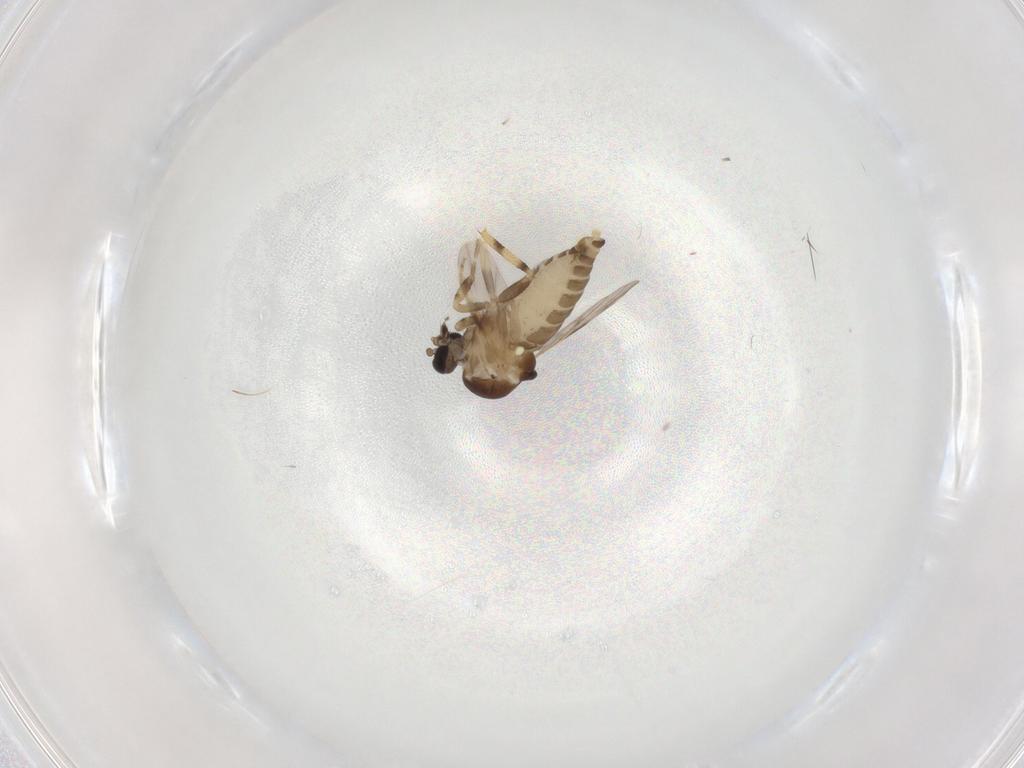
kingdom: Animalia
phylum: Arthropoda
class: Insecta
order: Diptera
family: Ceratopogonidae
